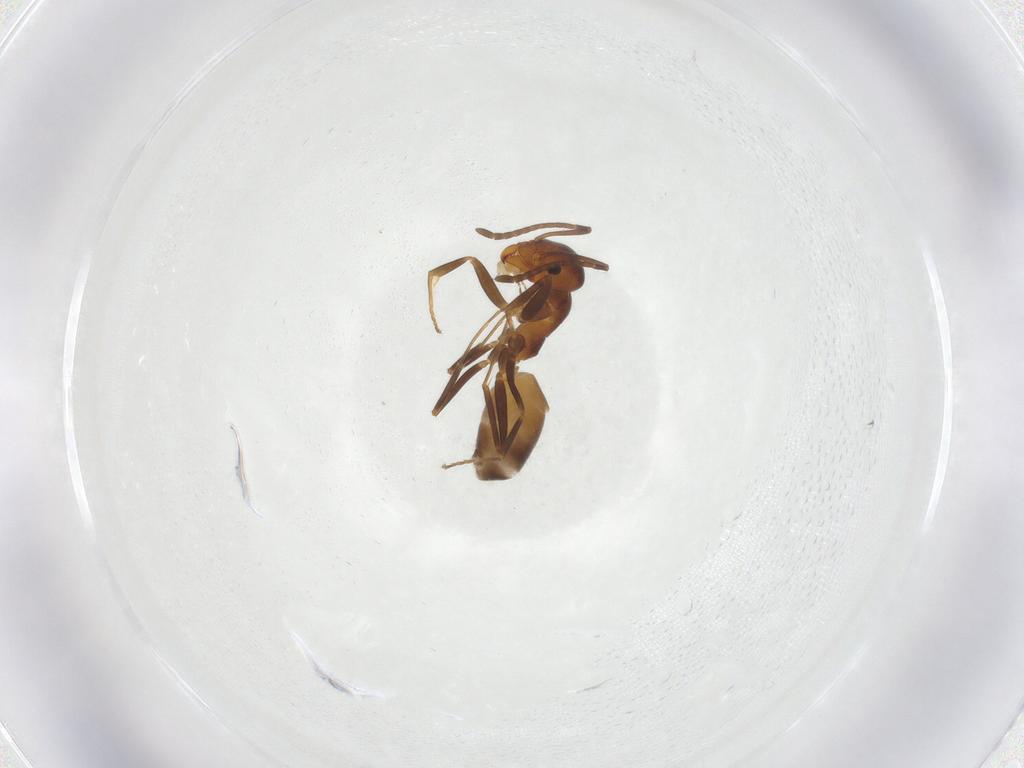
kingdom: Animalia
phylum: Arthropoda
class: Insecta
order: Hymenoptera
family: Formicidae
